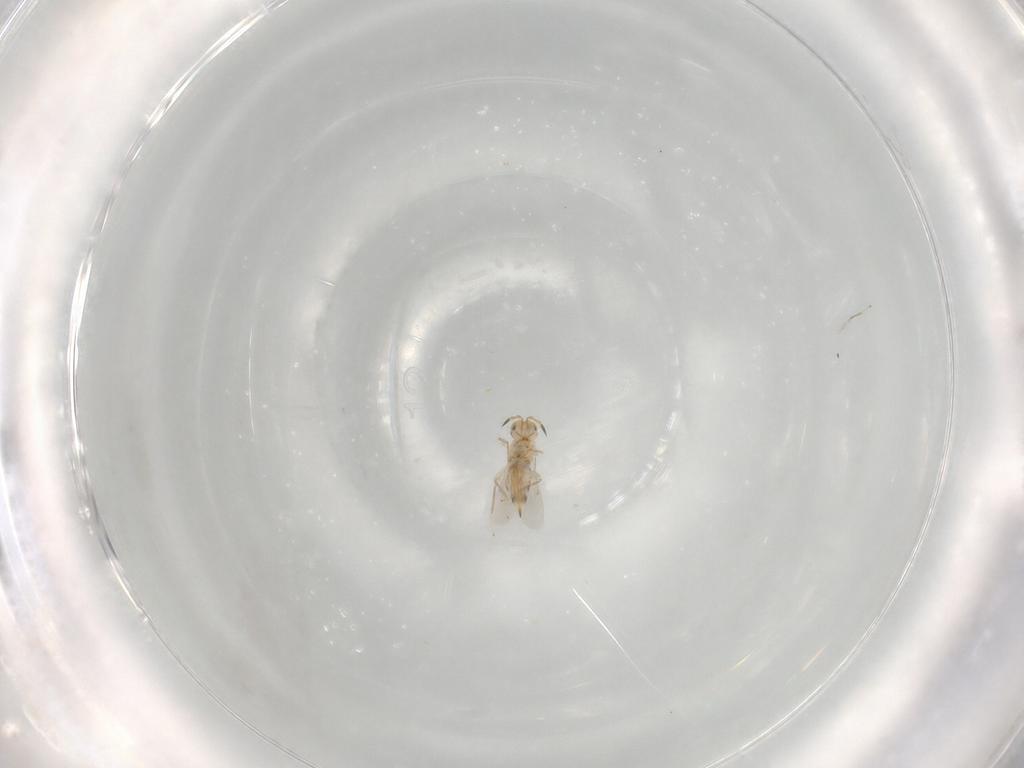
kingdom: Animalia
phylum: Arthropoda
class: Insecta
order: Hymenoptera
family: Aphelinidae
